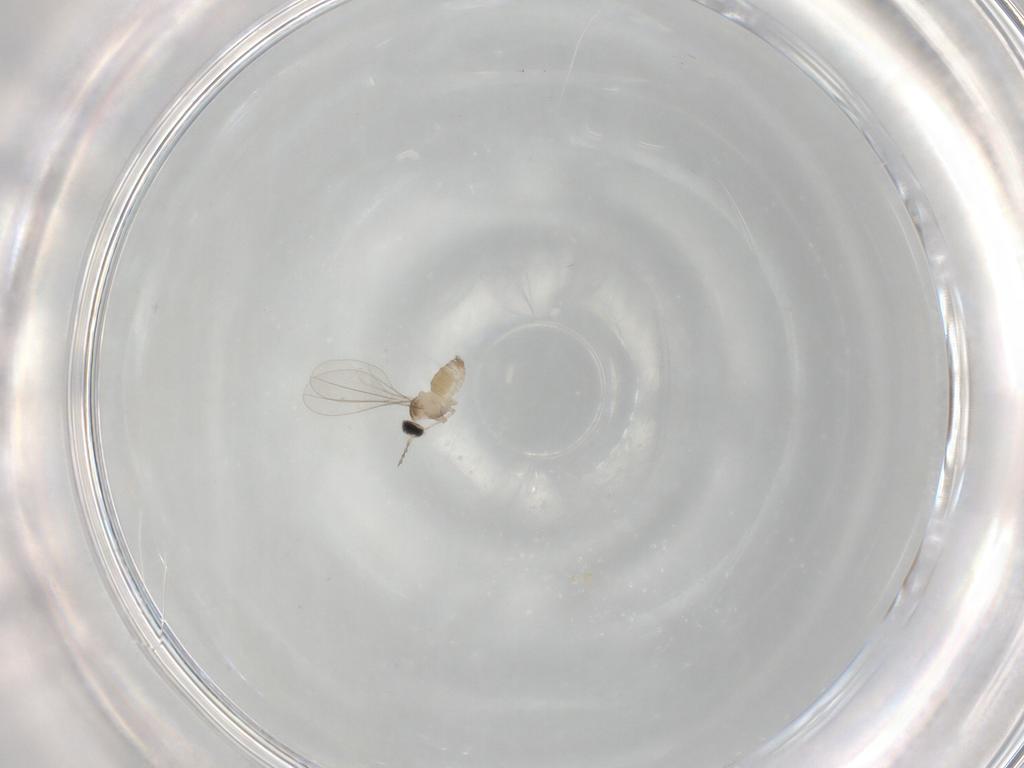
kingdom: Animalia
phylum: Arthropoda
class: Insecta
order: Diptera
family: Cecidomyiidae
